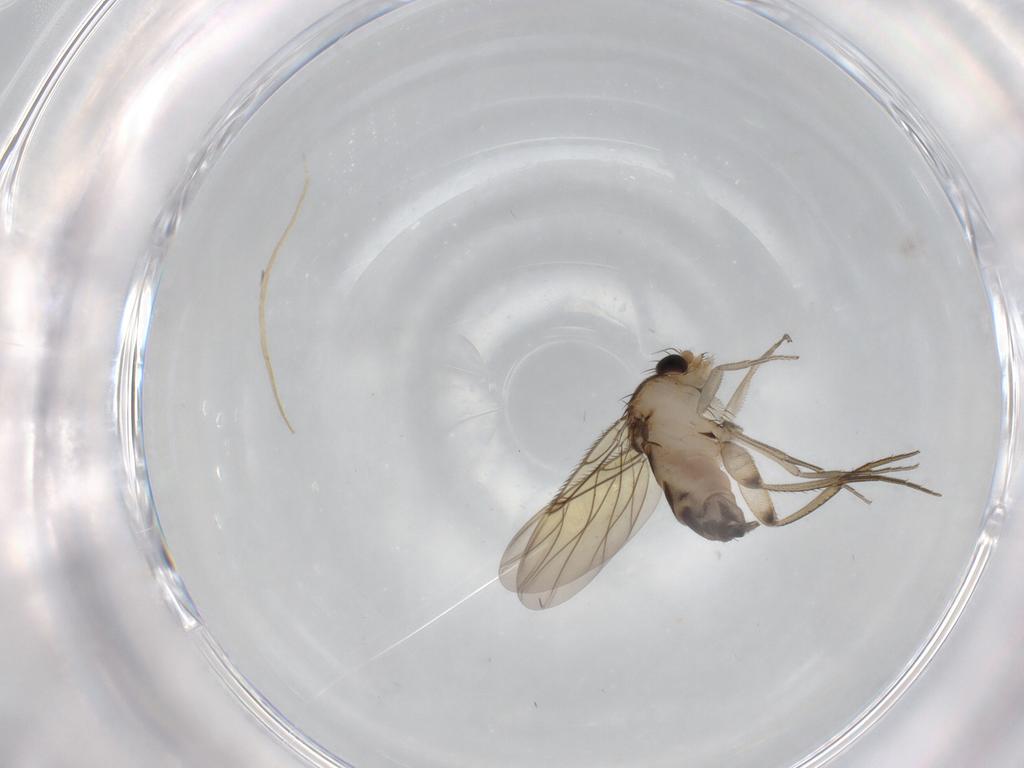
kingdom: Animalia
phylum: Arthropoda
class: Insecta
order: Diptera
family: Phoridae
